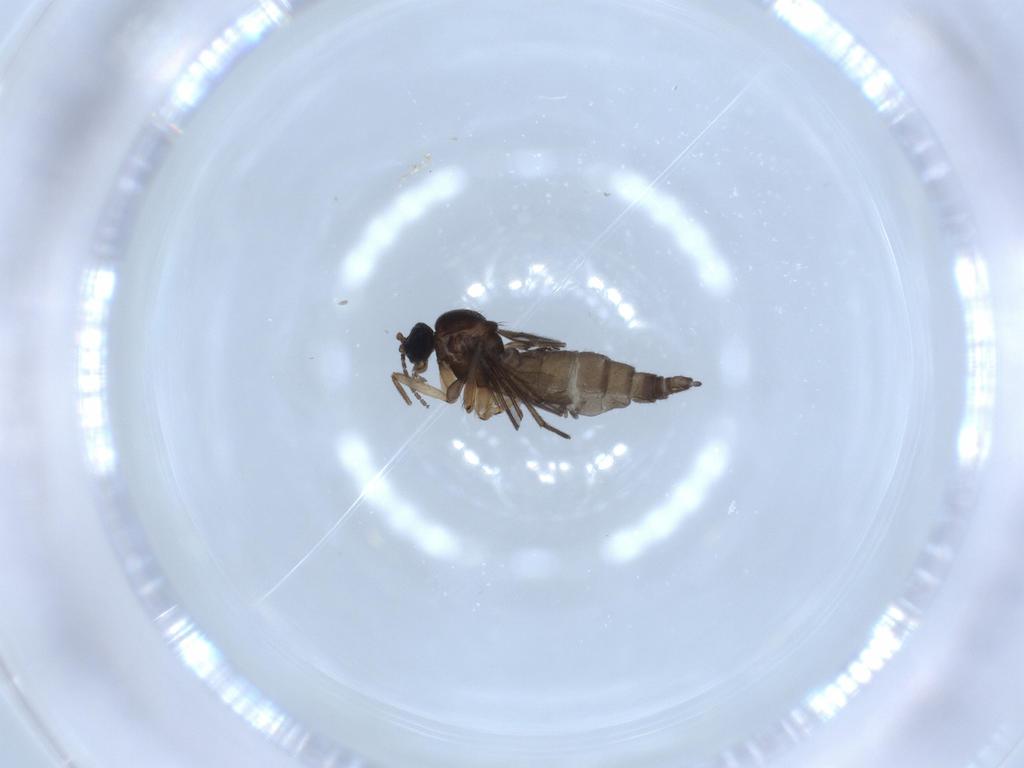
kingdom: Animalia
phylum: Arthropoda
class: Insecta
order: Diptera
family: Sciaridae
